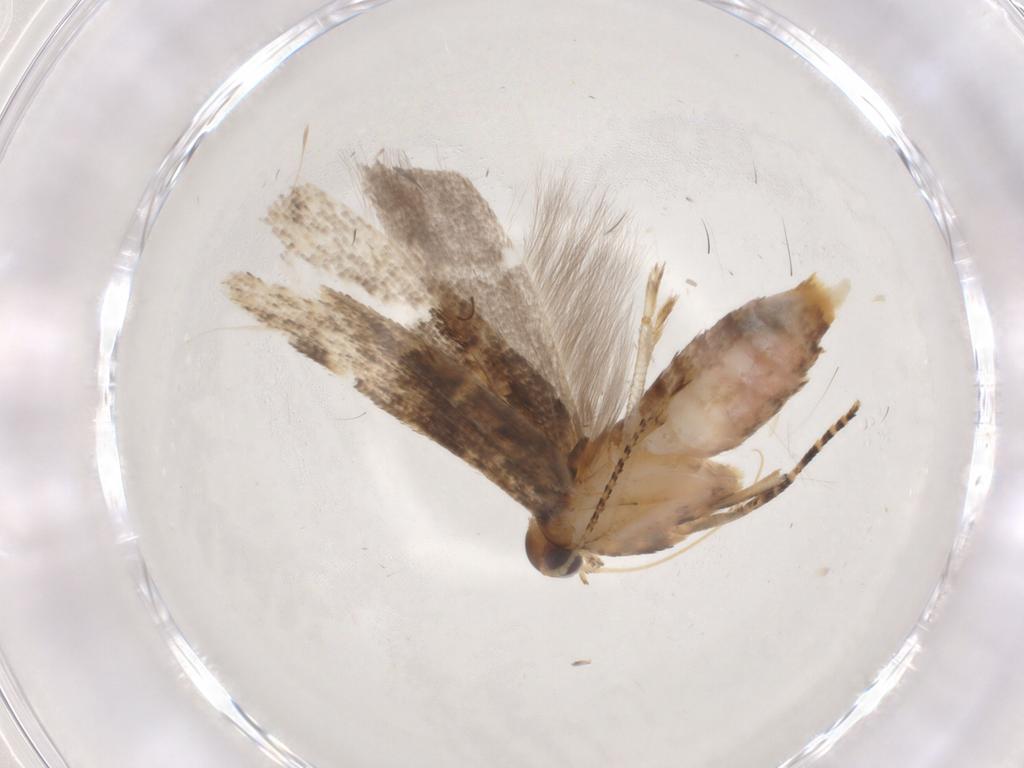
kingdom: Animalia
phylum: Arthropoda
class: Insecta
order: Lepidoptera
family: Gelechiidae
